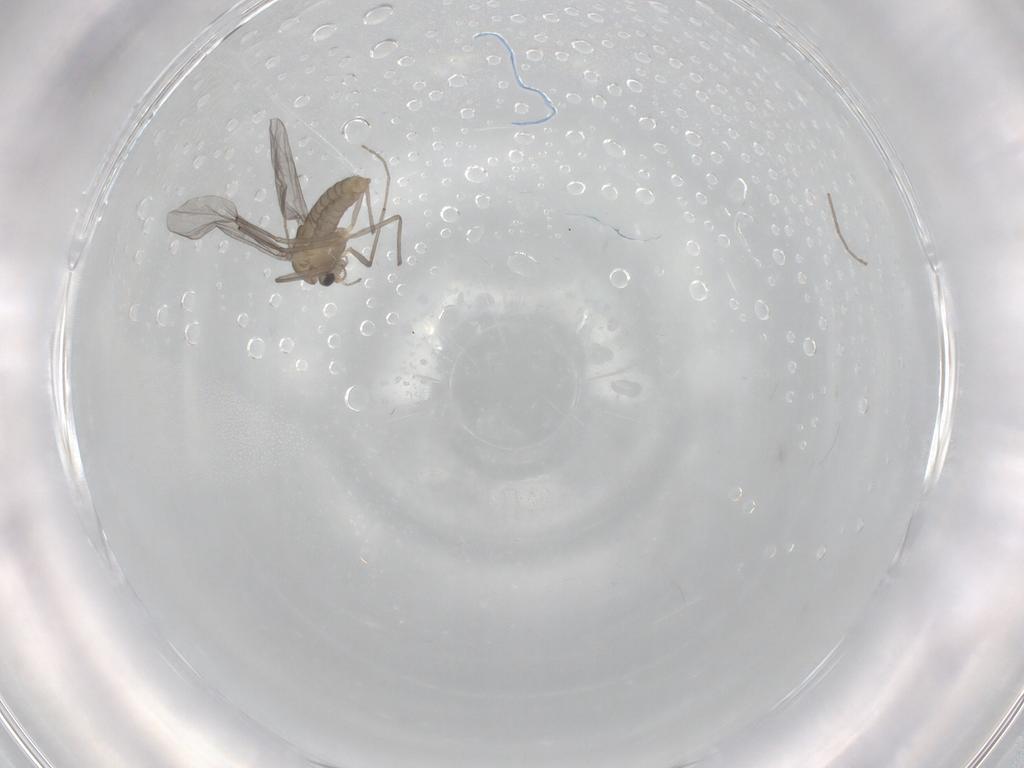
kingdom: Animalia
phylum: Arthropoda
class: Insecta
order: Diptera
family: Chironomidae
